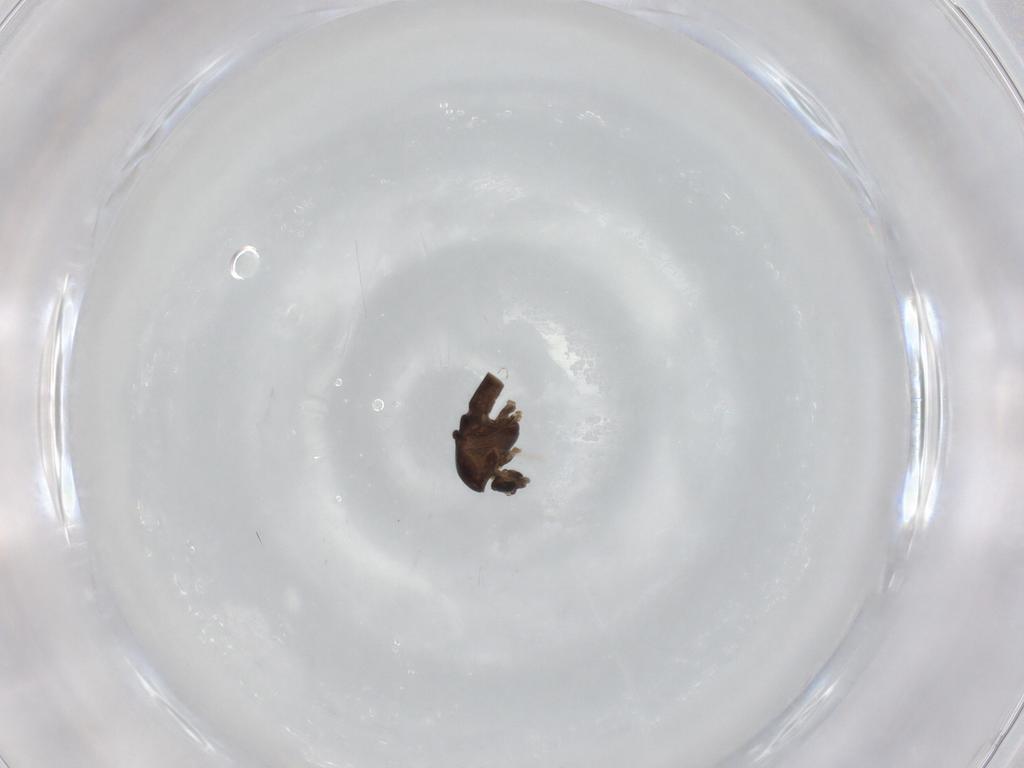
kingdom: Animalia
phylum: Arthropoda
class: Insecta
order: Diptera
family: Chironomidae
